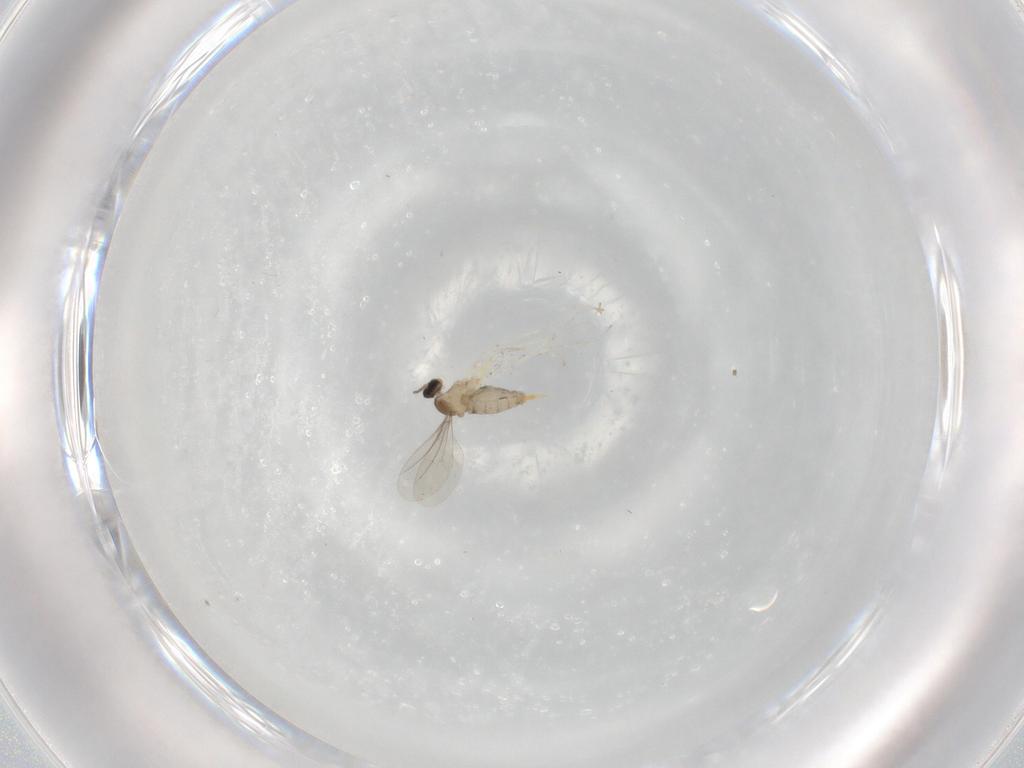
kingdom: Animalia
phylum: Arthropoda
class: Insecta
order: Diptera
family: Cecidomyiidae
